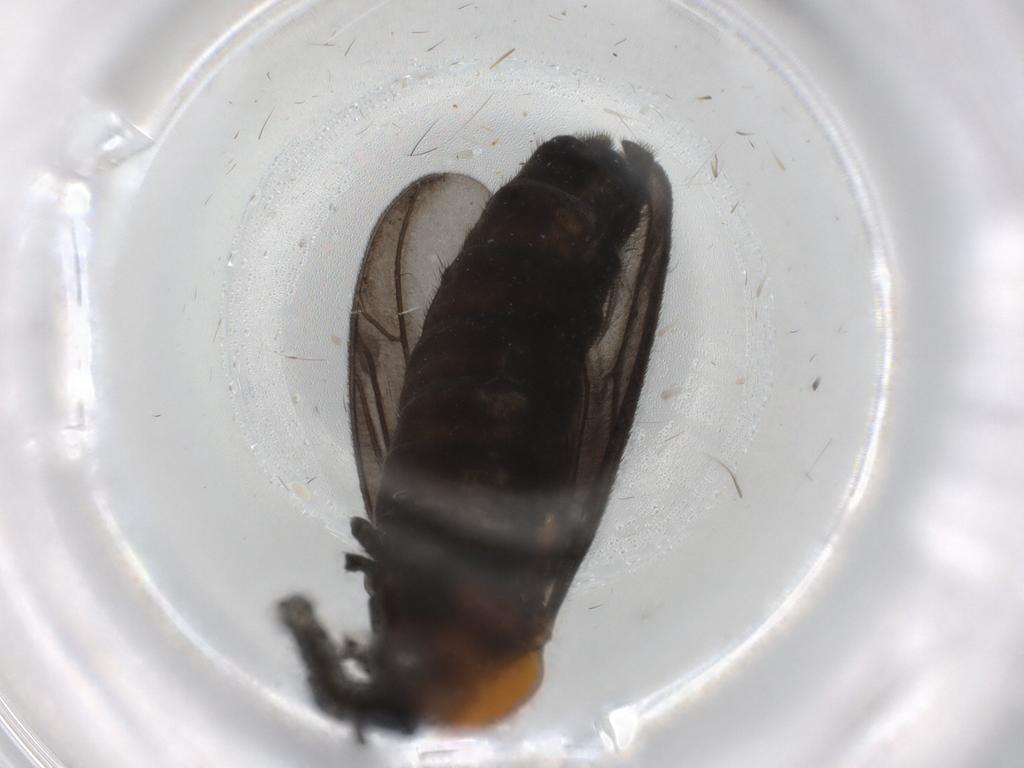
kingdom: Animalia
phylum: Arthropoda
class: Insecta
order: Diptera
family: Bibionidae
